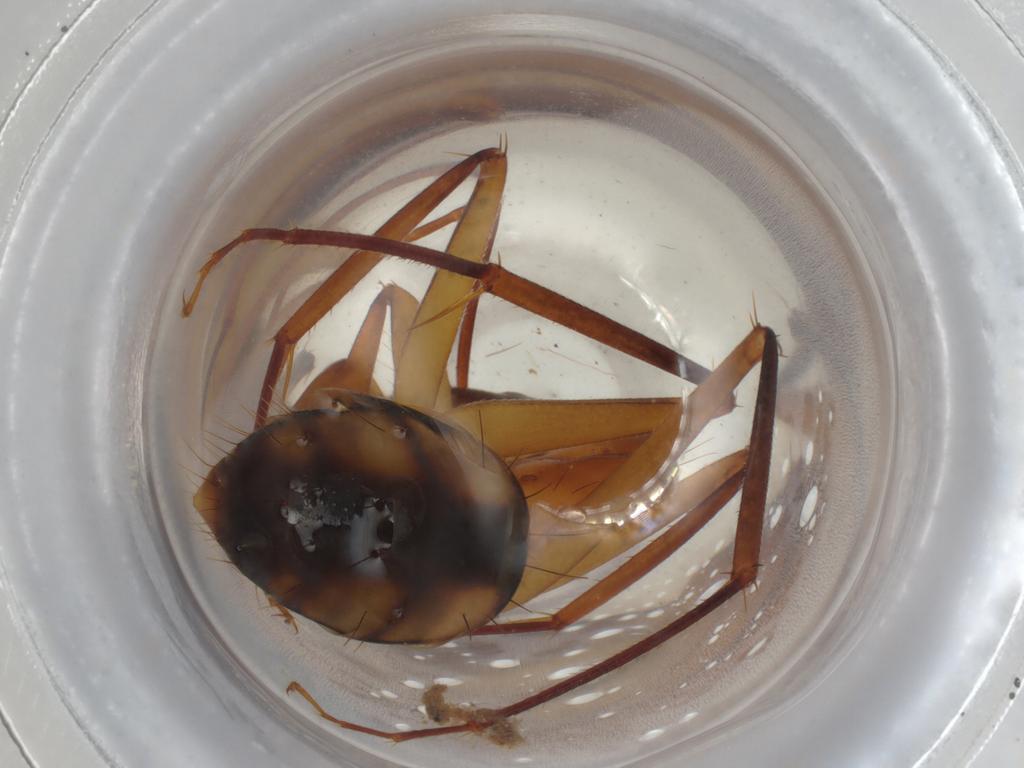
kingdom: Animalia
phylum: Arthropoda
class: Insecta
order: Hymenoptera
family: Formicidae
